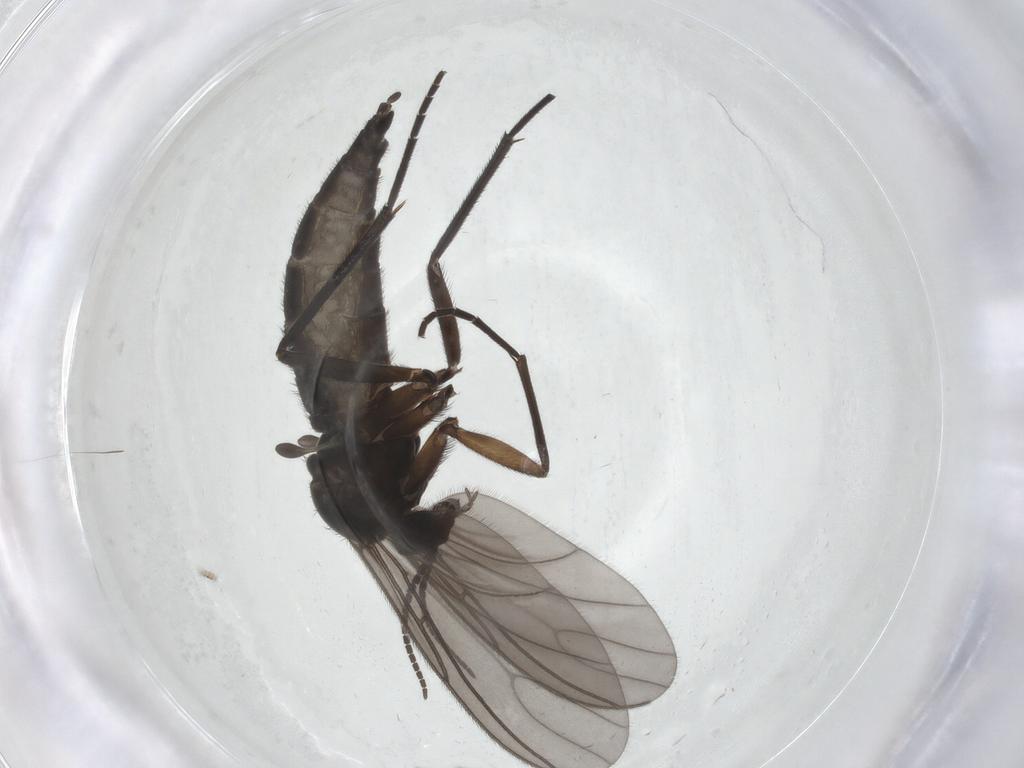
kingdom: Animalia
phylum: Arthropoda
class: Insecta
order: Diptera
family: Sciaridae
